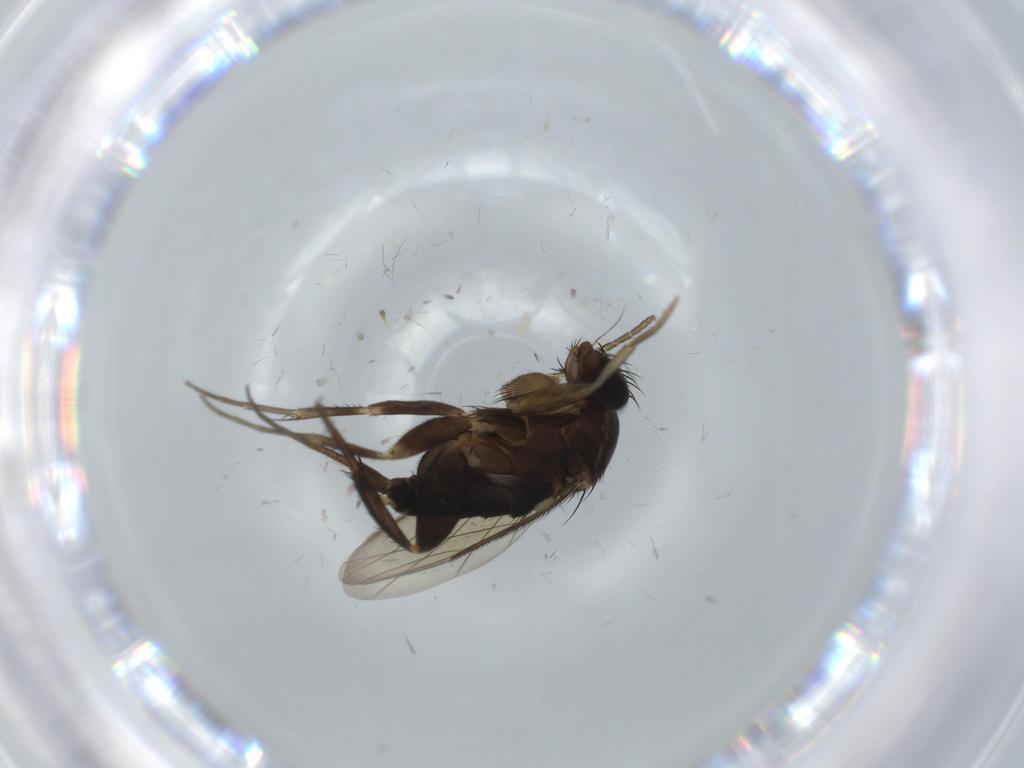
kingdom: Animalia
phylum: Arthropoda
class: Insecta
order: Diptera
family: Phoridae
